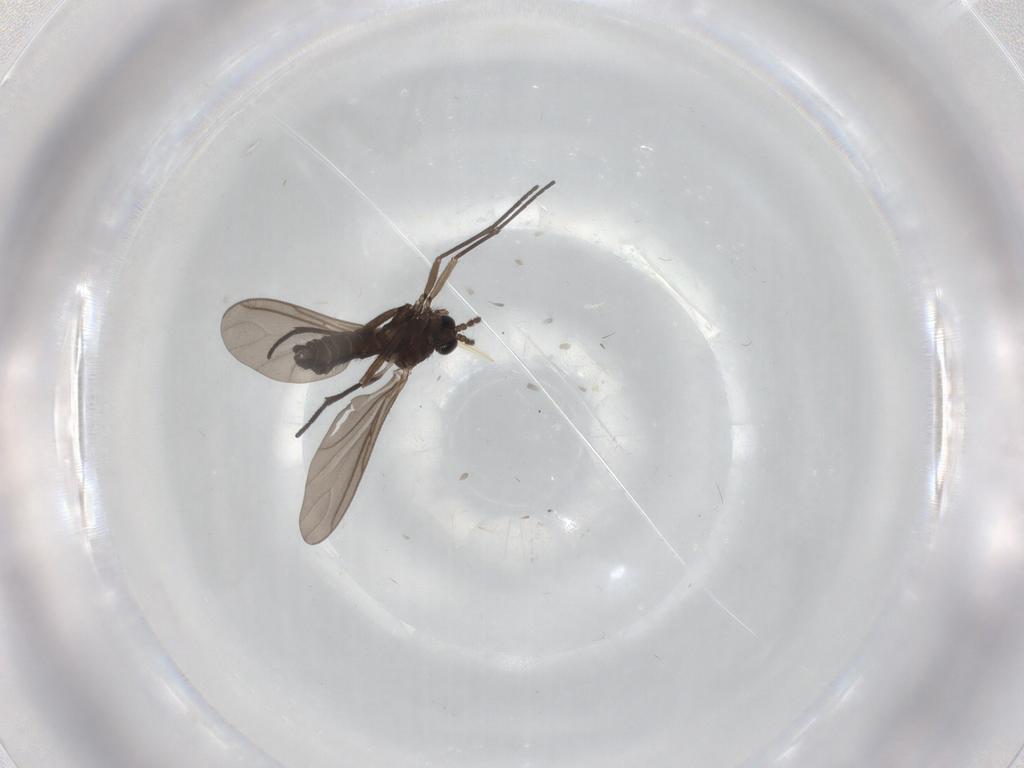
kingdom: Animalia
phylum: Arthropoda
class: Insecta
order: Diptera
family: Sciaridae
